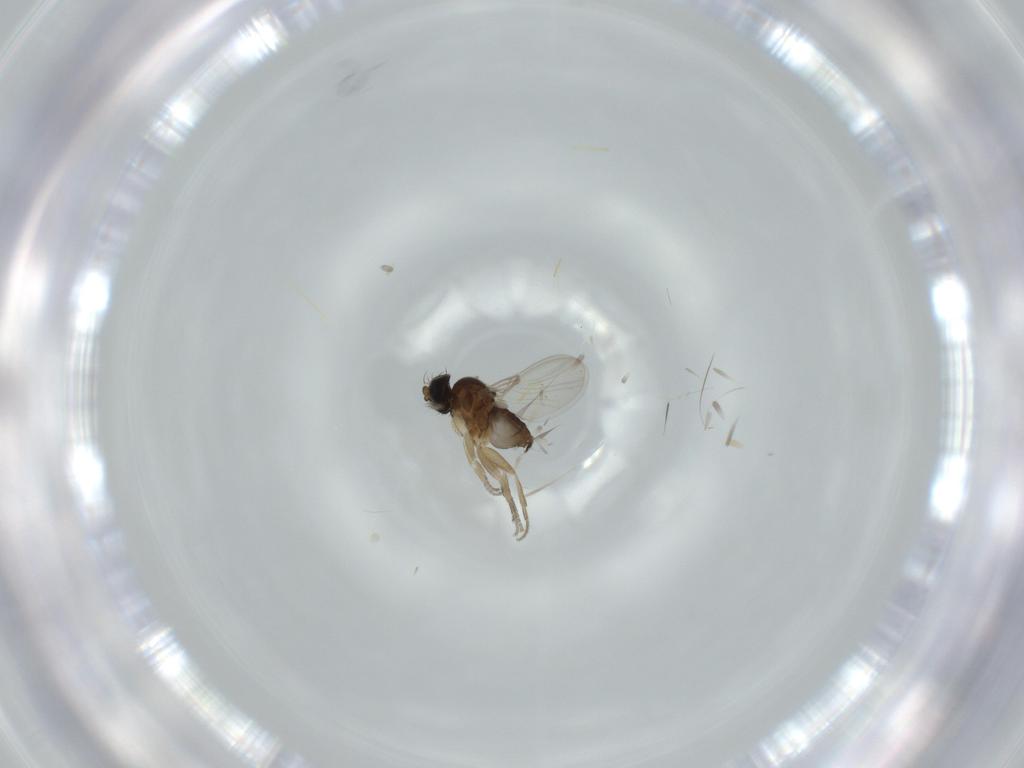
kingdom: Animalia
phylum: Arthropoda
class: Insecta
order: Diptera
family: Phoridae
